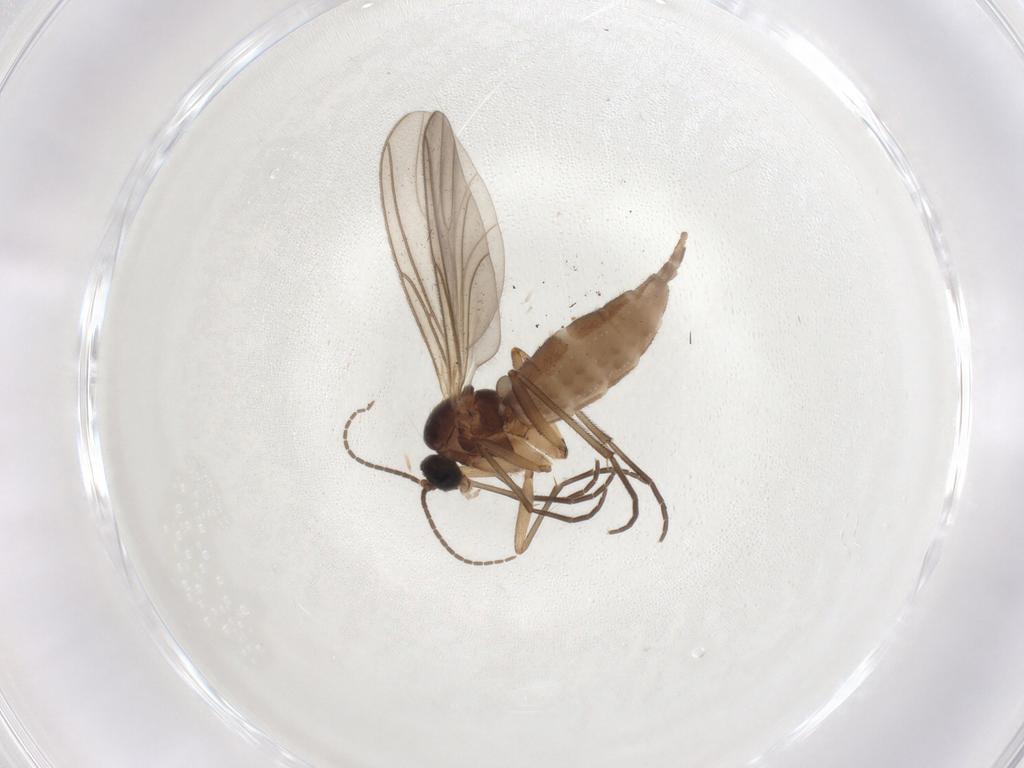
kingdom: Animalia
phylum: Arthropoda
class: Insecta
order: Diptera
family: Sciaridae
